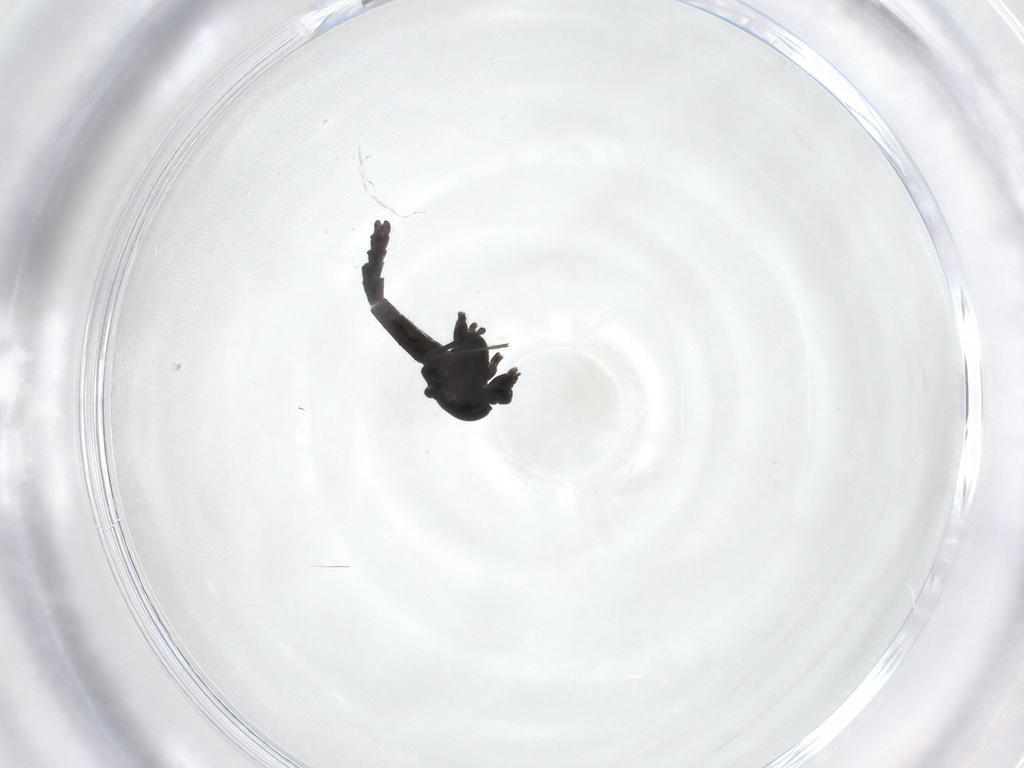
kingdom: Animalia
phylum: Arthropoda
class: Insecta
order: Diptera
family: Chironomidae
